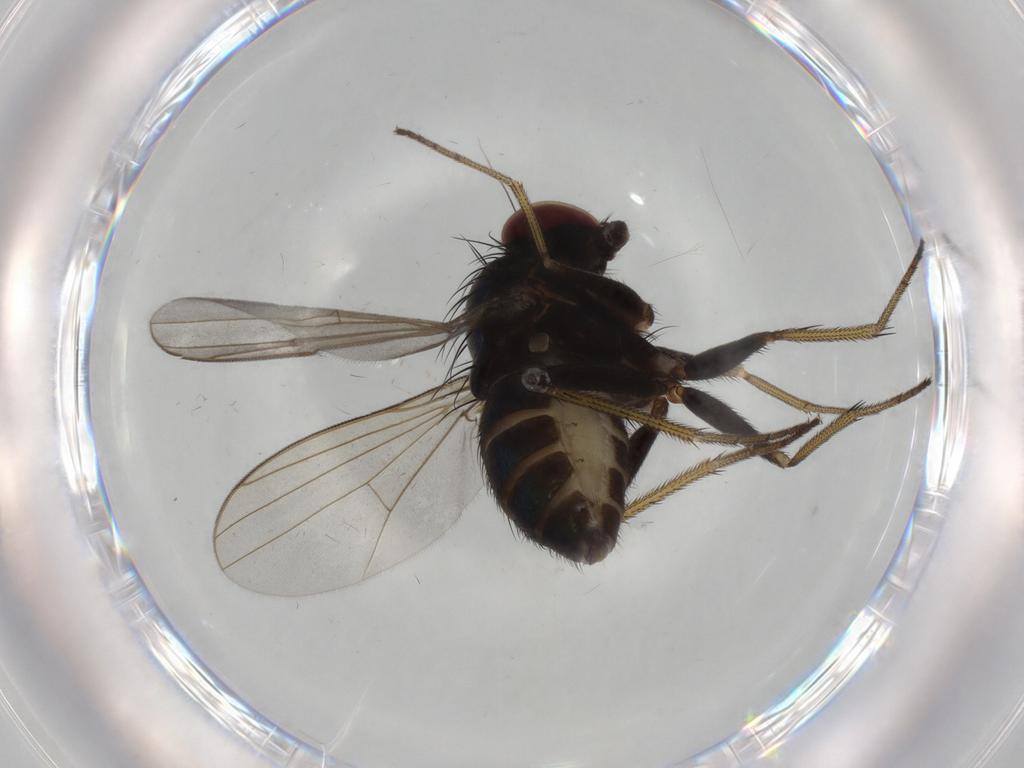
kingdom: Animalia
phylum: Arthropoda
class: Insecta
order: Diptera
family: Dolichopodidae
